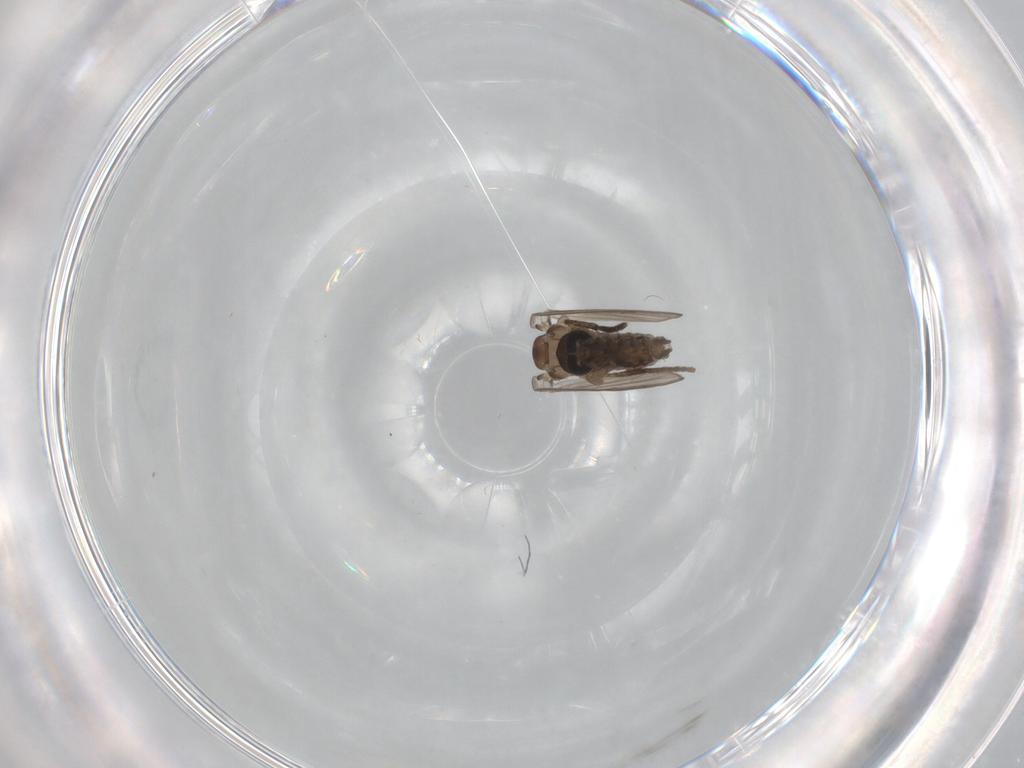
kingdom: Animalia
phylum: Arthropoda
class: Insecta
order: Diptera
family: Psychodidae
